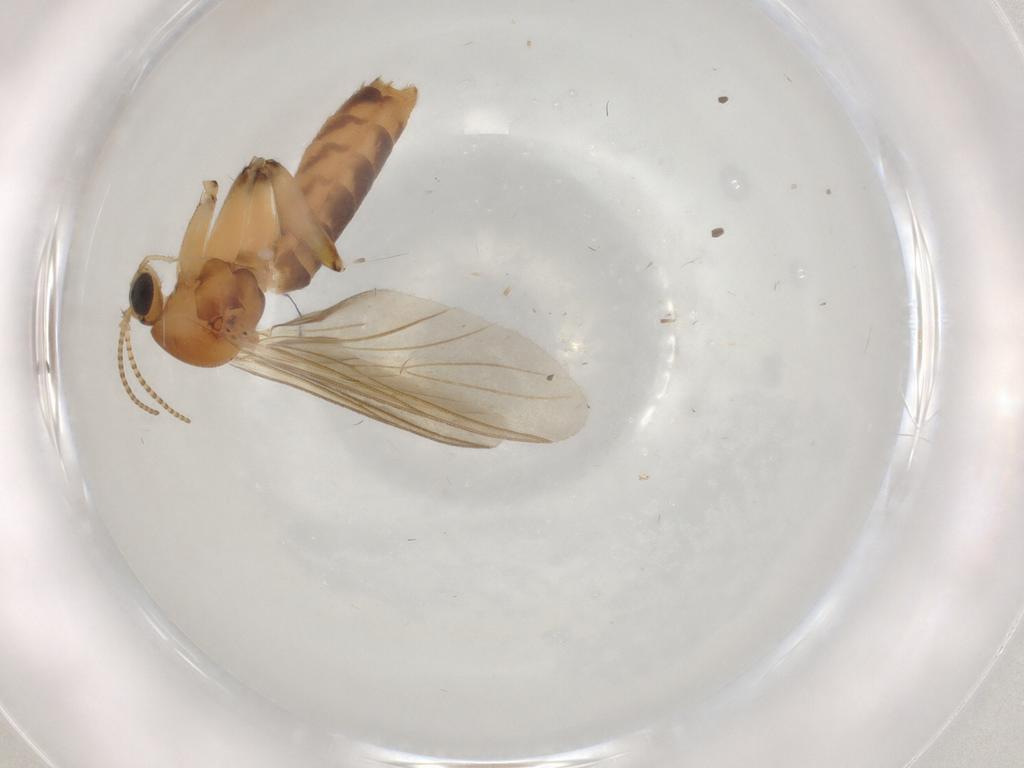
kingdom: Animalia
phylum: Arthropoda
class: Insecta
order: Diptera
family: Mycetophilidae
